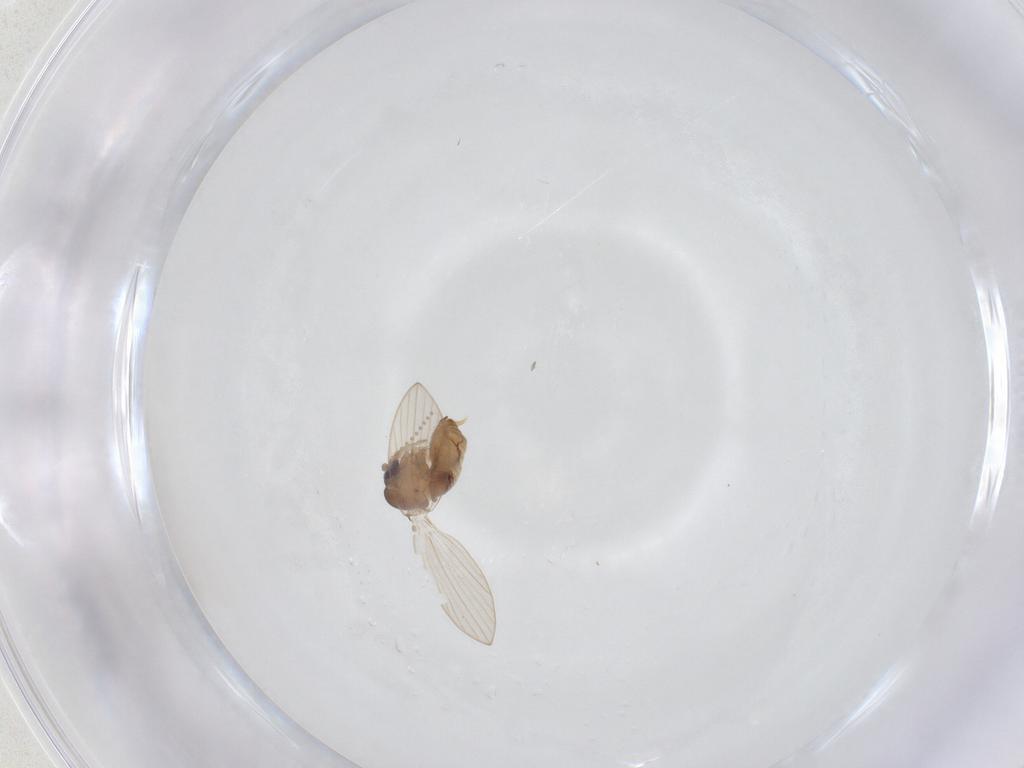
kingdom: Animalia
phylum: Arthropoda
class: Insecta
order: Diptera
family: Psychodidae
